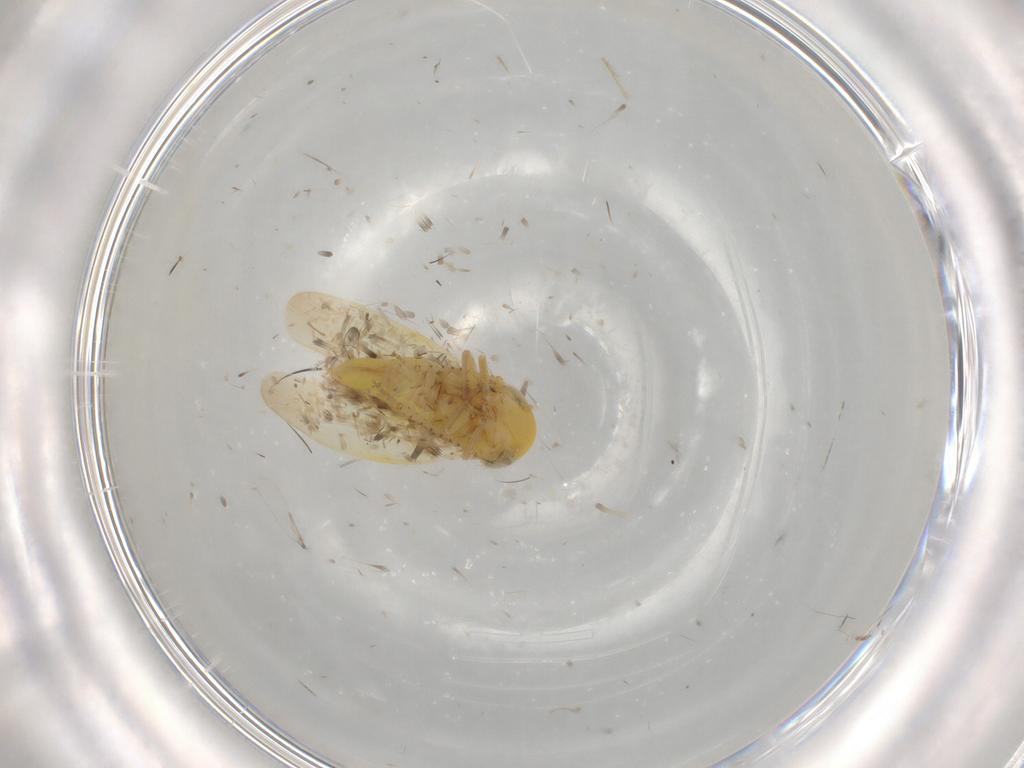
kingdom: Animalia
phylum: Arthropoda
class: Insecta
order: Hemiptera
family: Cicadellidae
